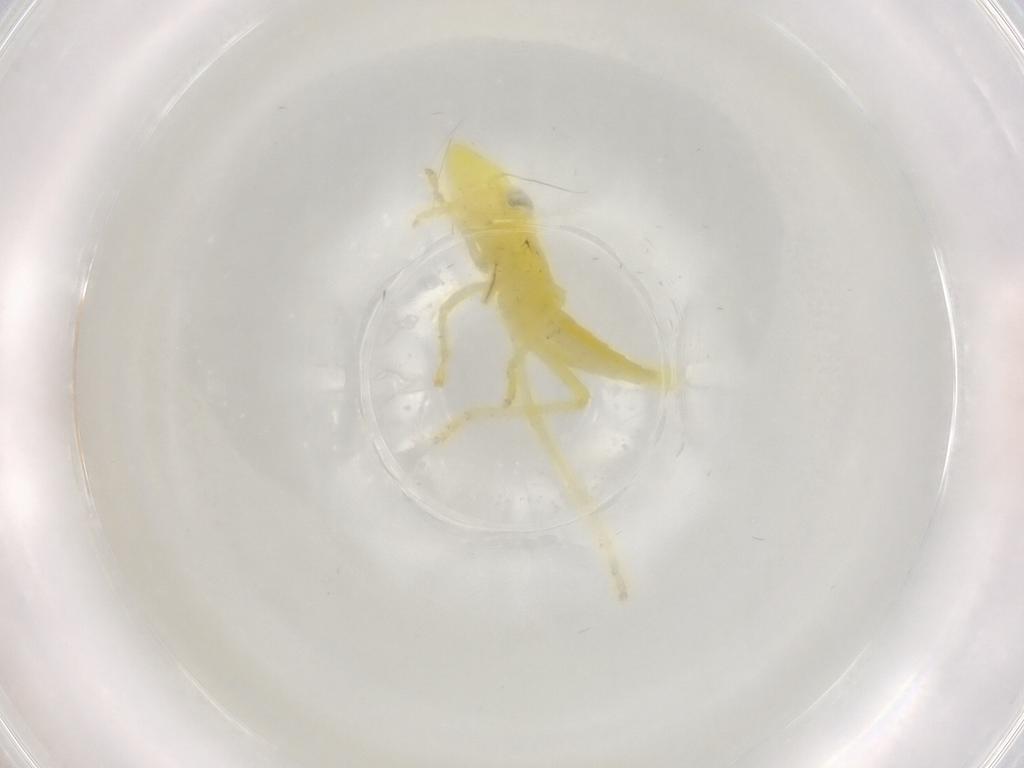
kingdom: Animalia
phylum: Arthropoda
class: Insecta
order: Hemiptera
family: Cicadellidae
